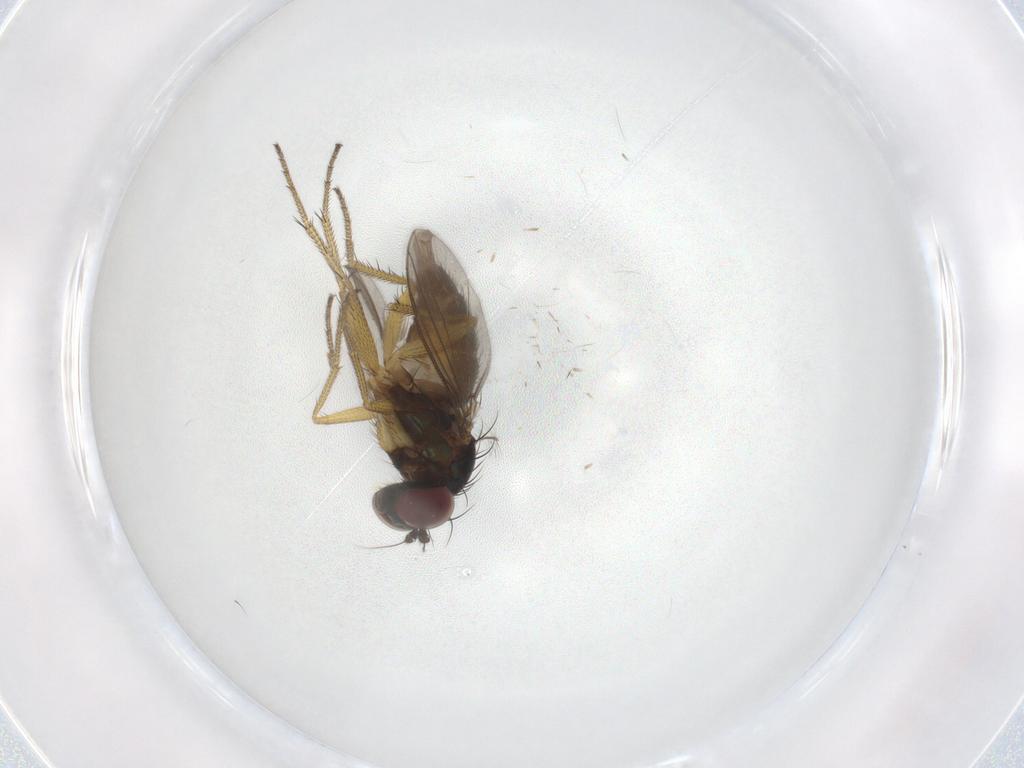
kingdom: Animalia
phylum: Arthropoda
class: Insecta
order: Diptera
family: Dolichopodidae
